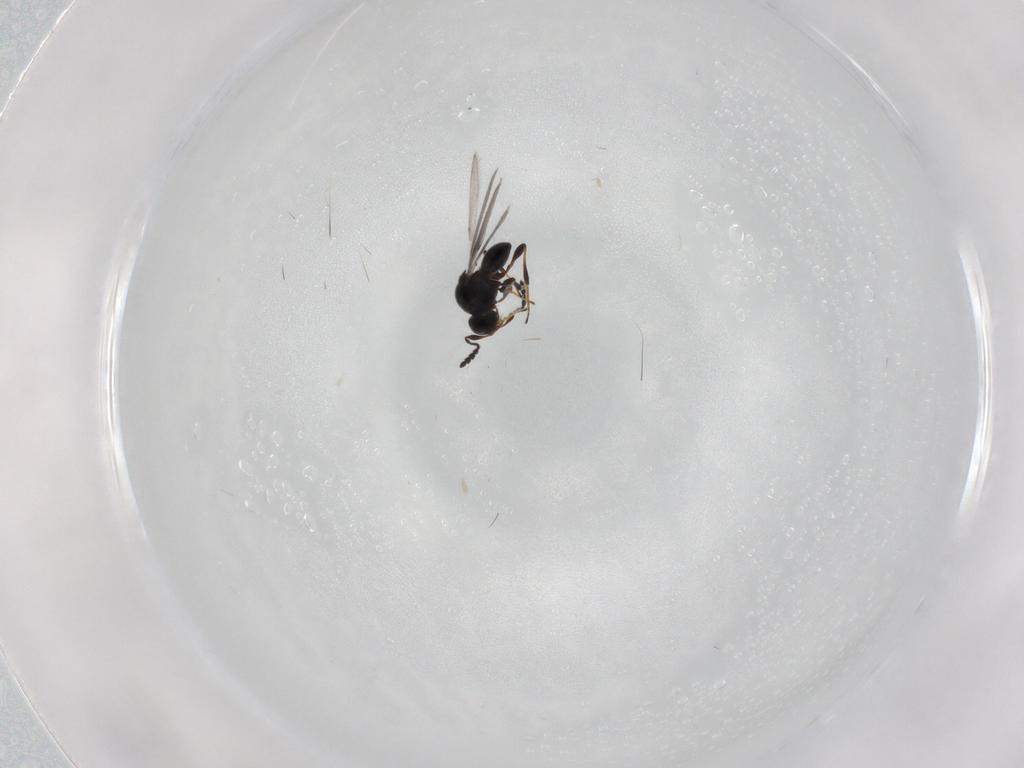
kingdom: Animalia
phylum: Arthropoda
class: Insecta
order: Hymenoptera
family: Platygastridae
